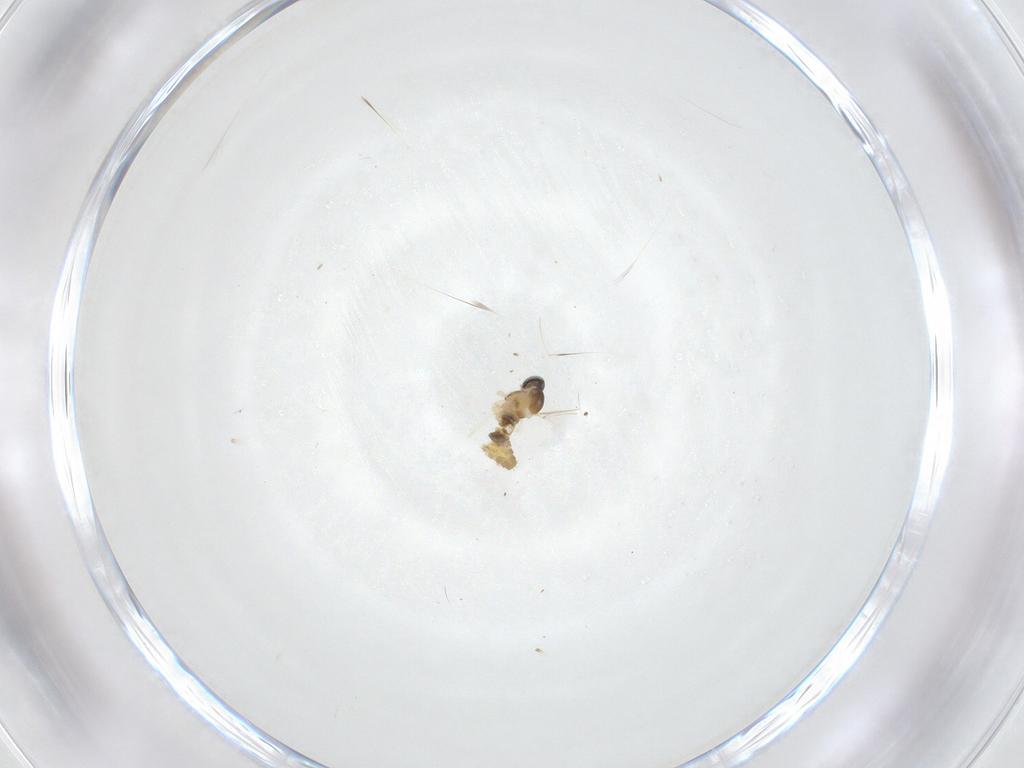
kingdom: Animalia
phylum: Arthropoda
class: Insecta
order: Diptera
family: Cecidomyiidae
